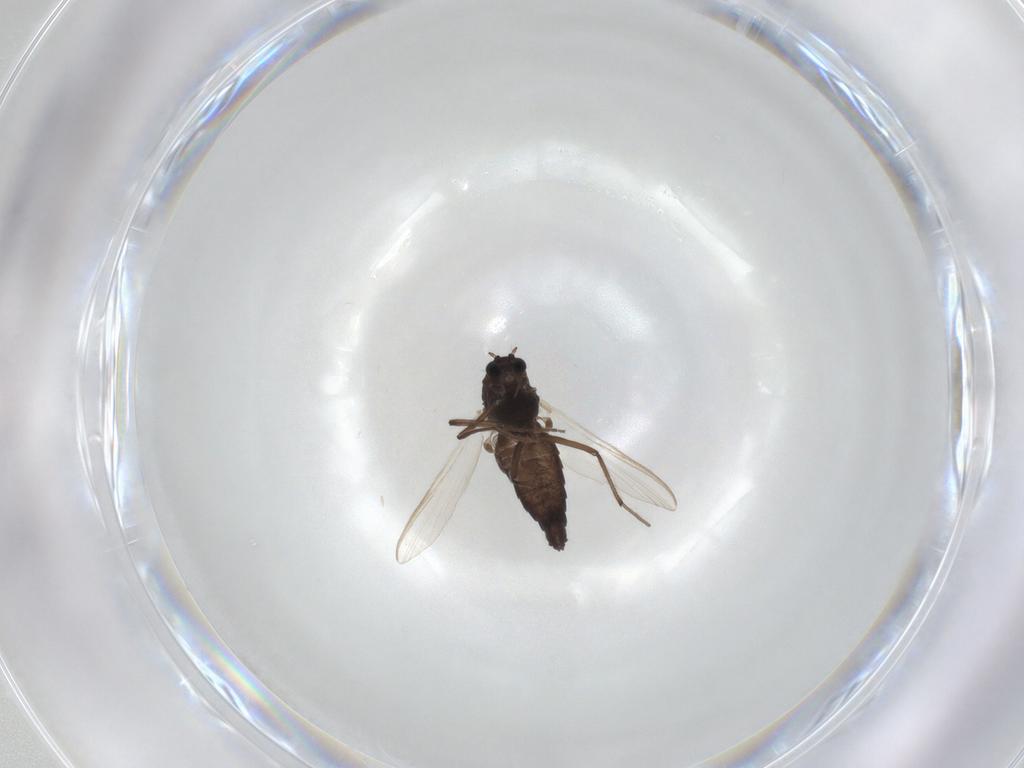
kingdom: Animalia
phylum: Arthropoda
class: Insecta
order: Diptera
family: Chironomidae
